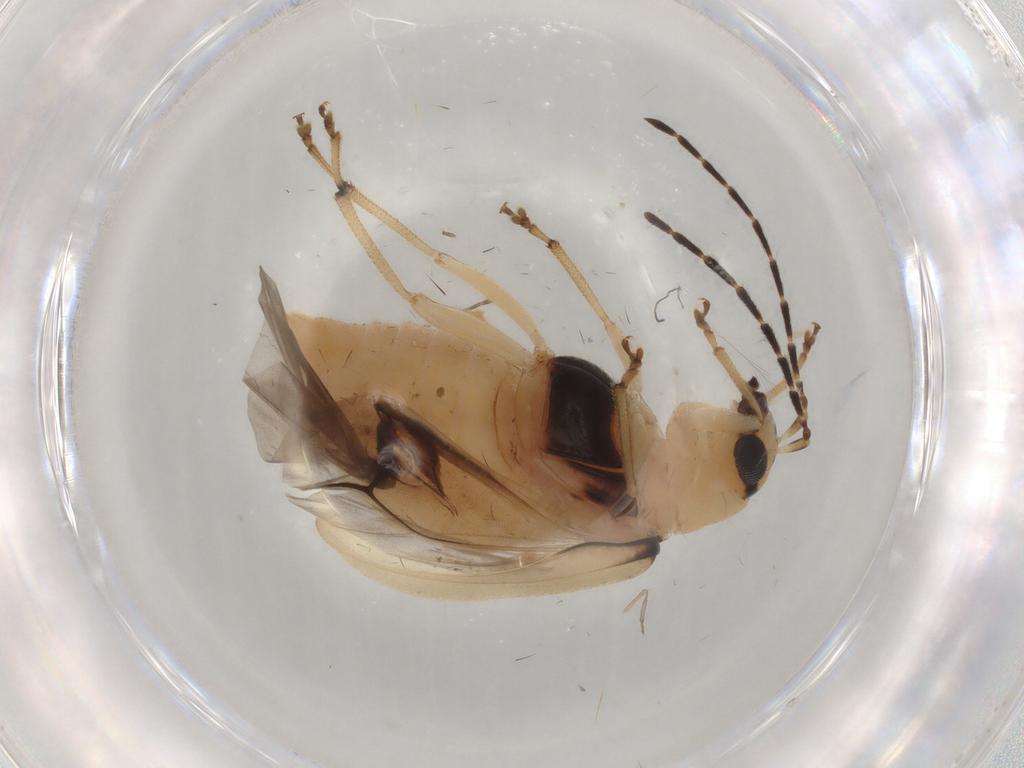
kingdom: Animalia
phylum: Arthropoda
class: Insecta
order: Coleoptera
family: Chrysomelidae
